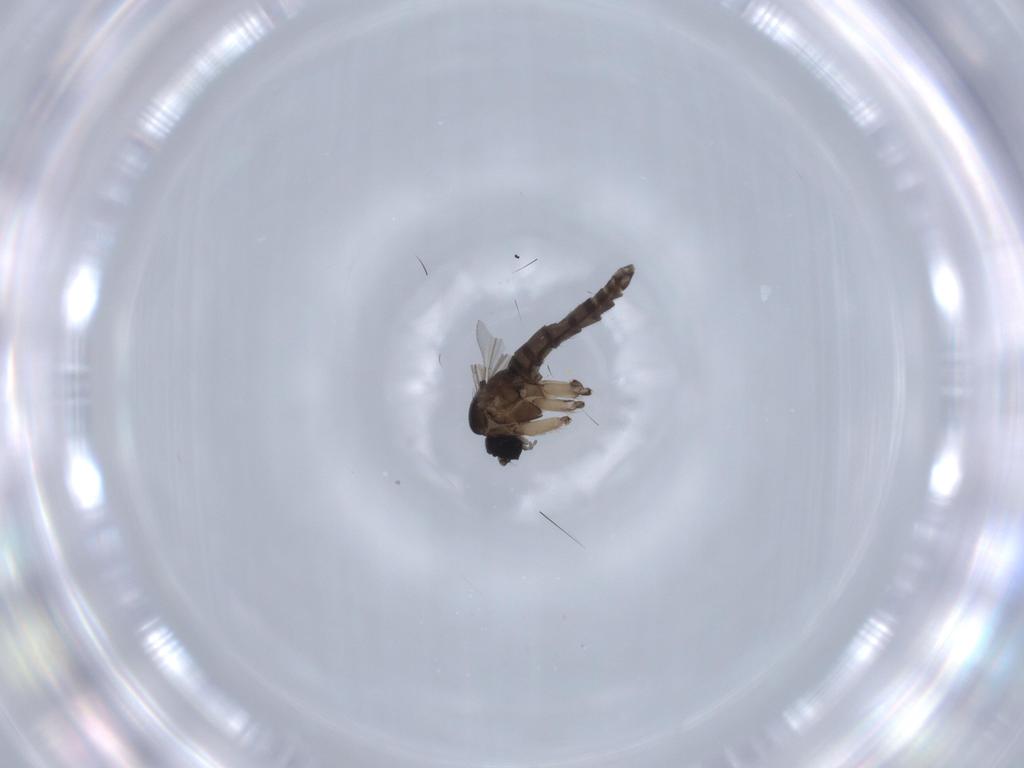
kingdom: Animalia
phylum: Arthropoda
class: Insecta
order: Diptera
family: Sciaridae
